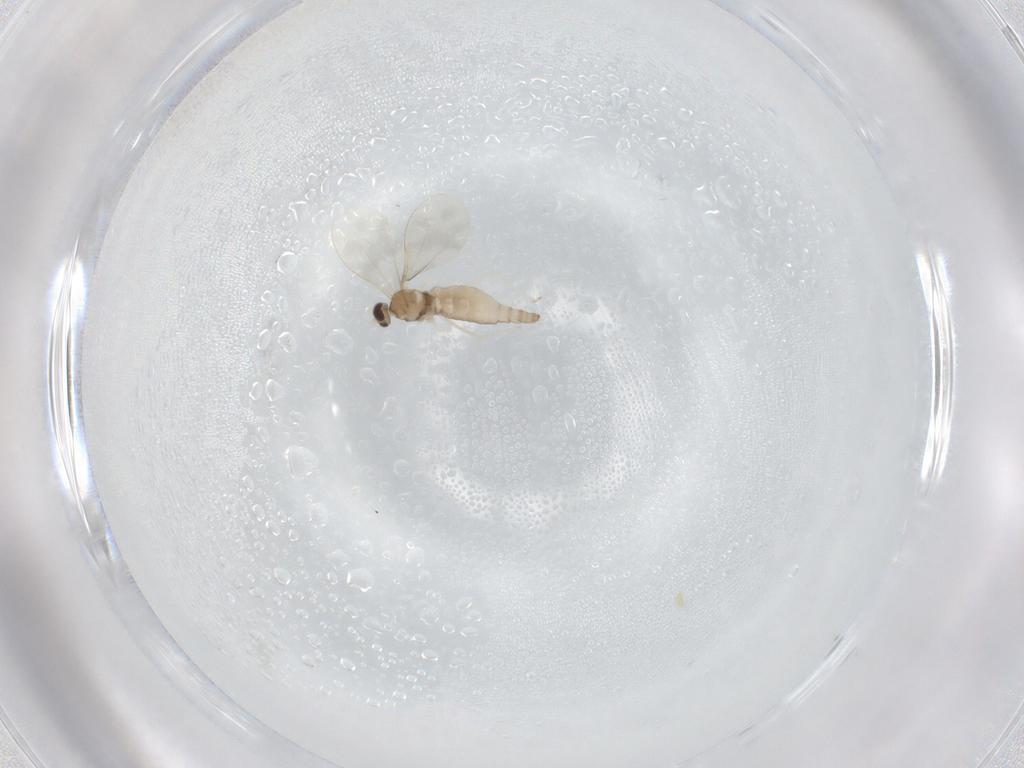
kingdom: Animalia
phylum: Arthropoda
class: Insecta
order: Diptera
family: Cecidomyiidae
